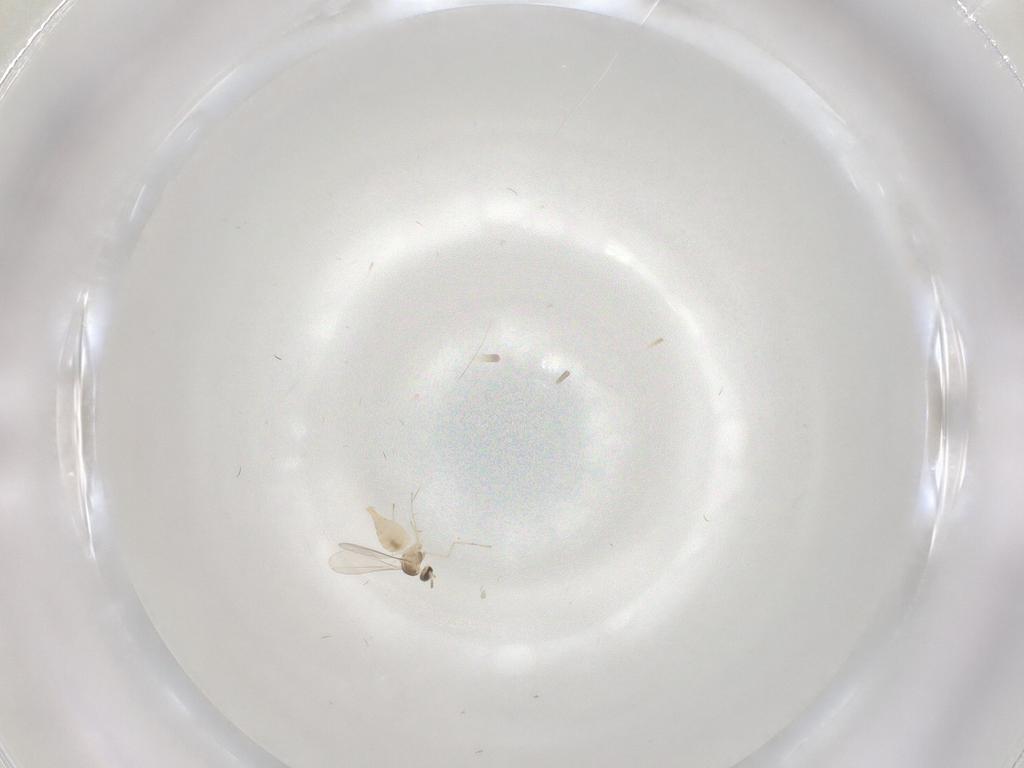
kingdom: Animalia
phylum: Arthropoda
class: Insecta
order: Diptera
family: Cecidomyiidae
